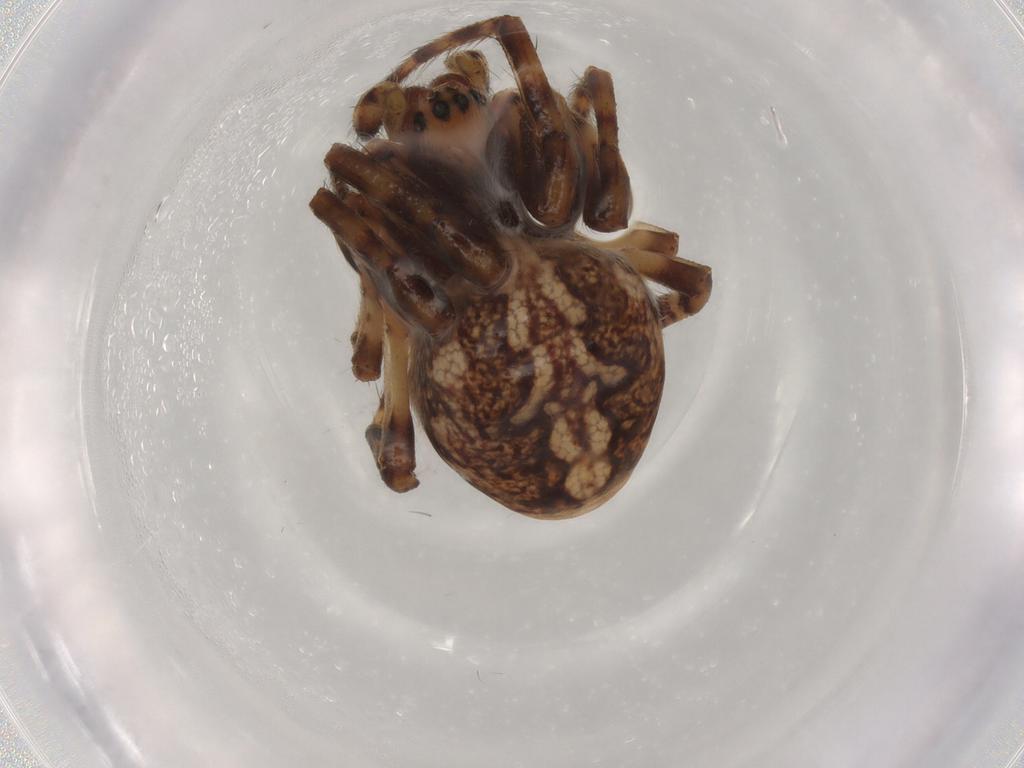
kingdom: Animalia
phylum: Arthropoda
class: Arachnida
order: Araneae
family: Araneidae
